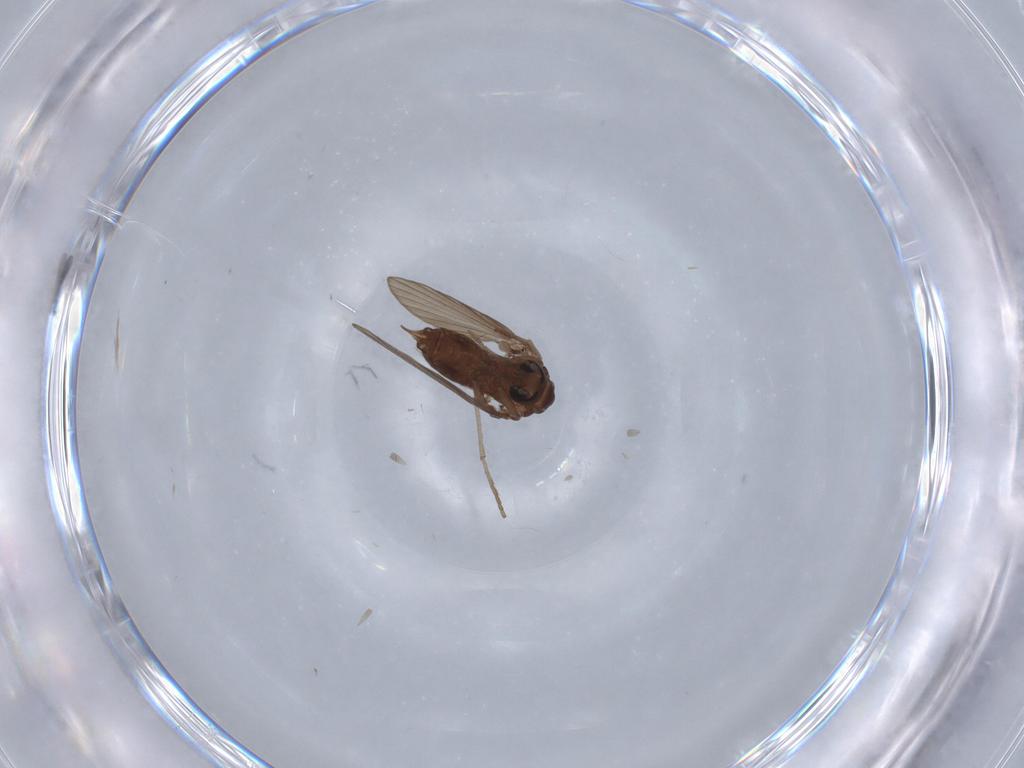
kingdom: Animalia
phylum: Arthropoda
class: Insecta
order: Diptera
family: Psychodidae
